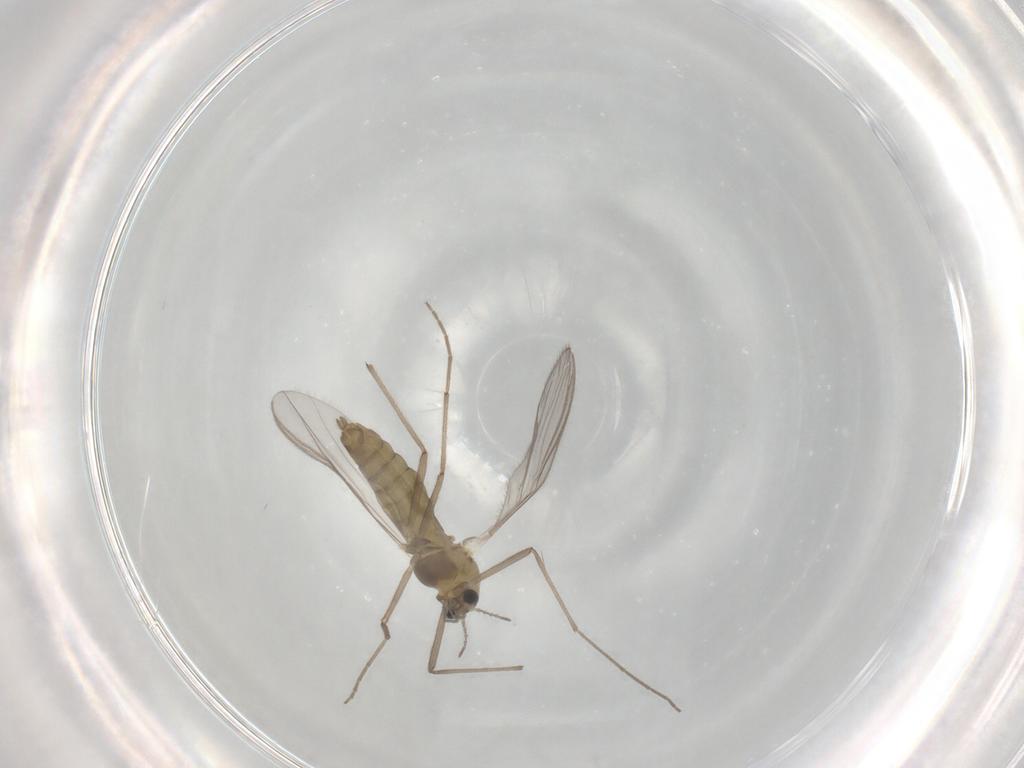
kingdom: Animalia
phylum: Arthropoda
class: Insecta
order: Diptera
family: Chironomidae
